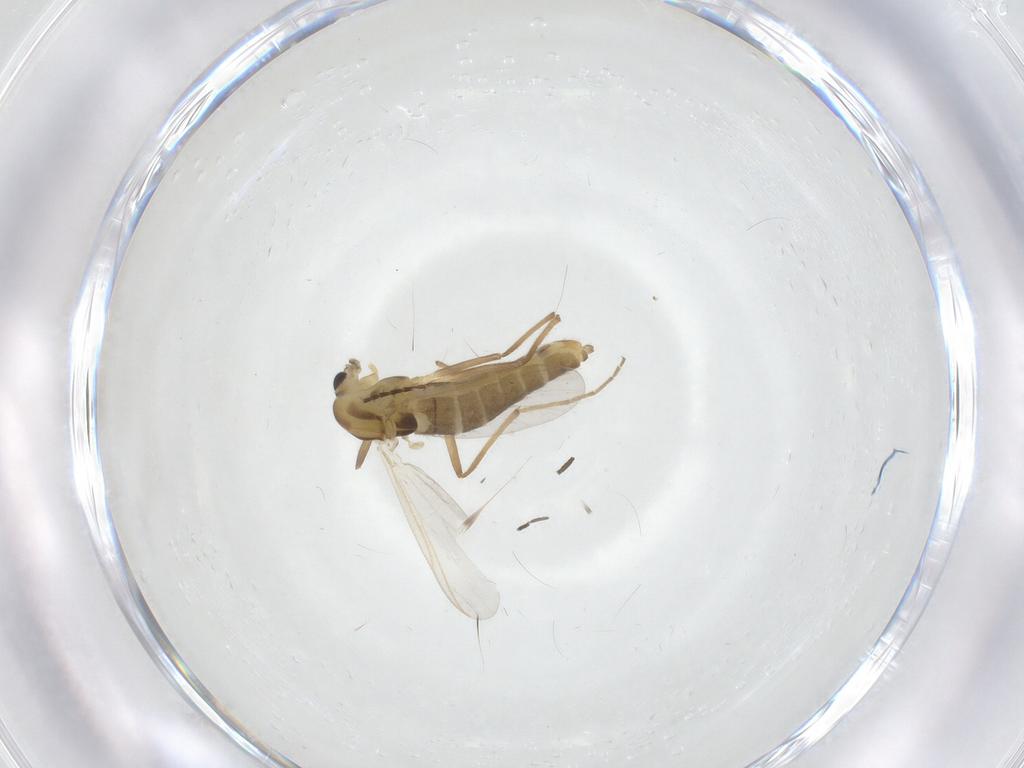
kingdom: Animalia
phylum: Arthropoda
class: Insecta
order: Diptera
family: Chironomidae
